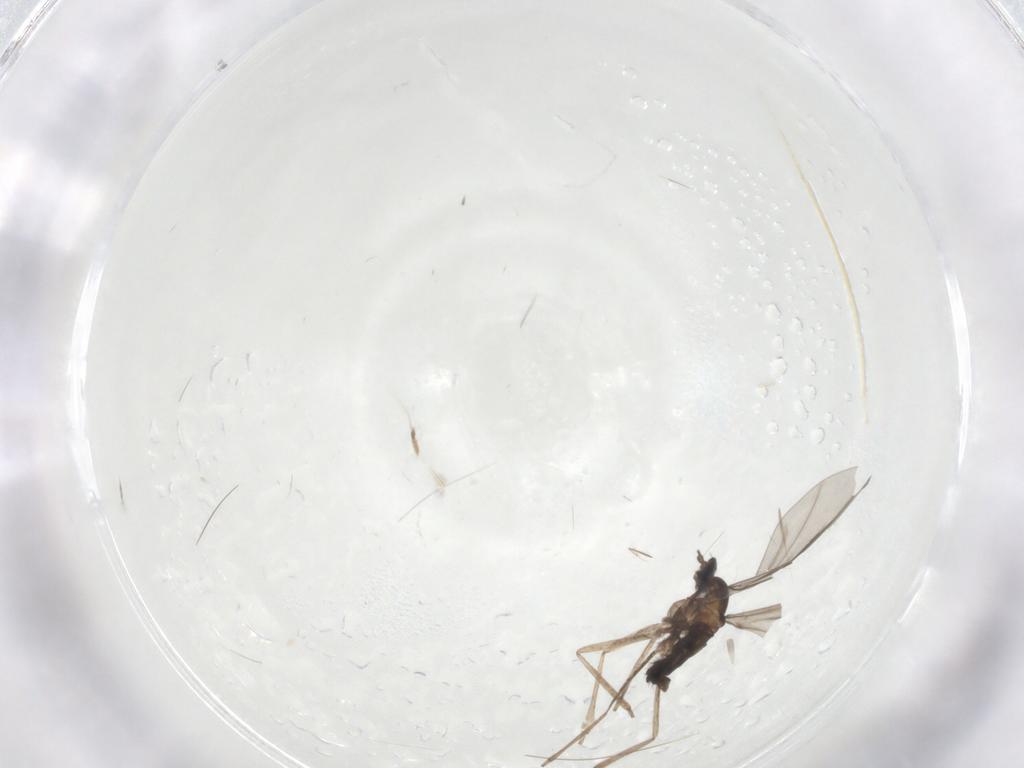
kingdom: Animalia
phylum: Arthropoda
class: Insecta
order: Diptera
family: Cecidomyiidae
